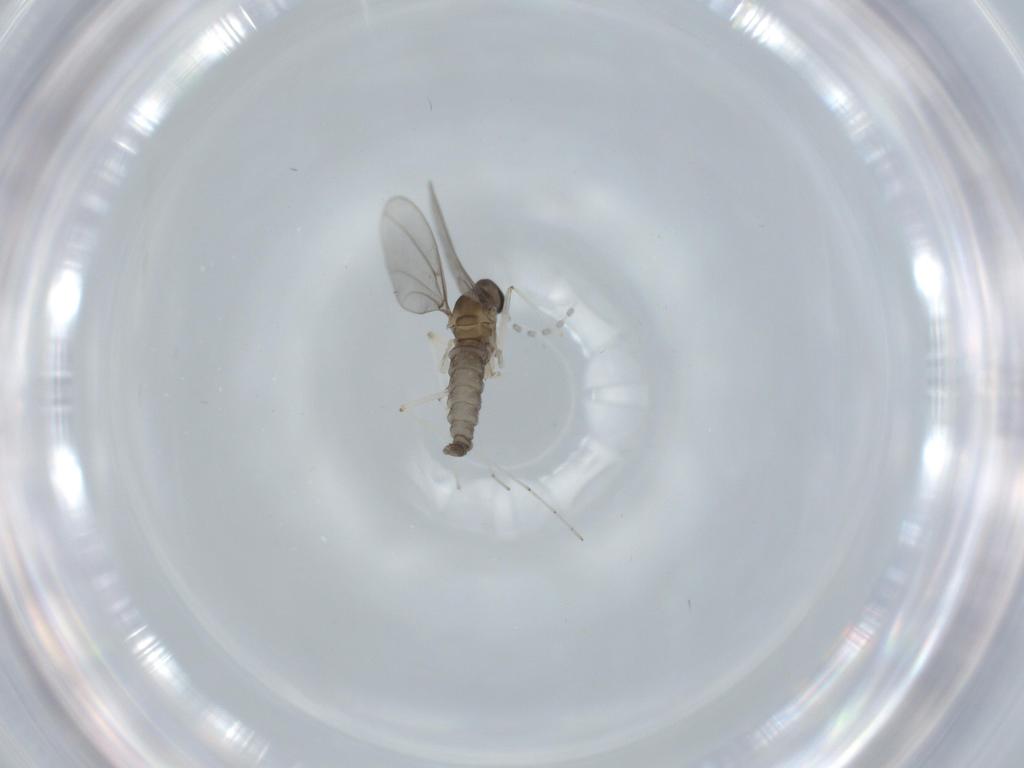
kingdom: Animalia
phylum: Arthropoda
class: Insecta
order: Diptera
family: Cecidomyiidae
